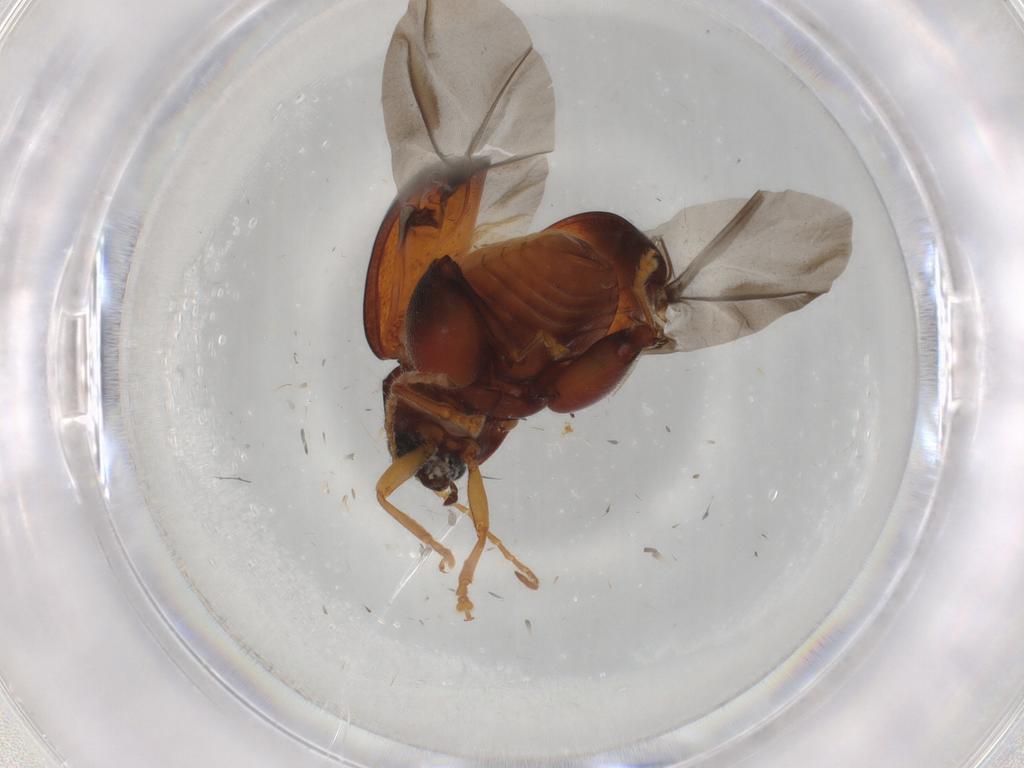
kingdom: Animalia
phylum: Arthropoda
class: Insecta
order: Coleoptera
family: Chrysomelidae
